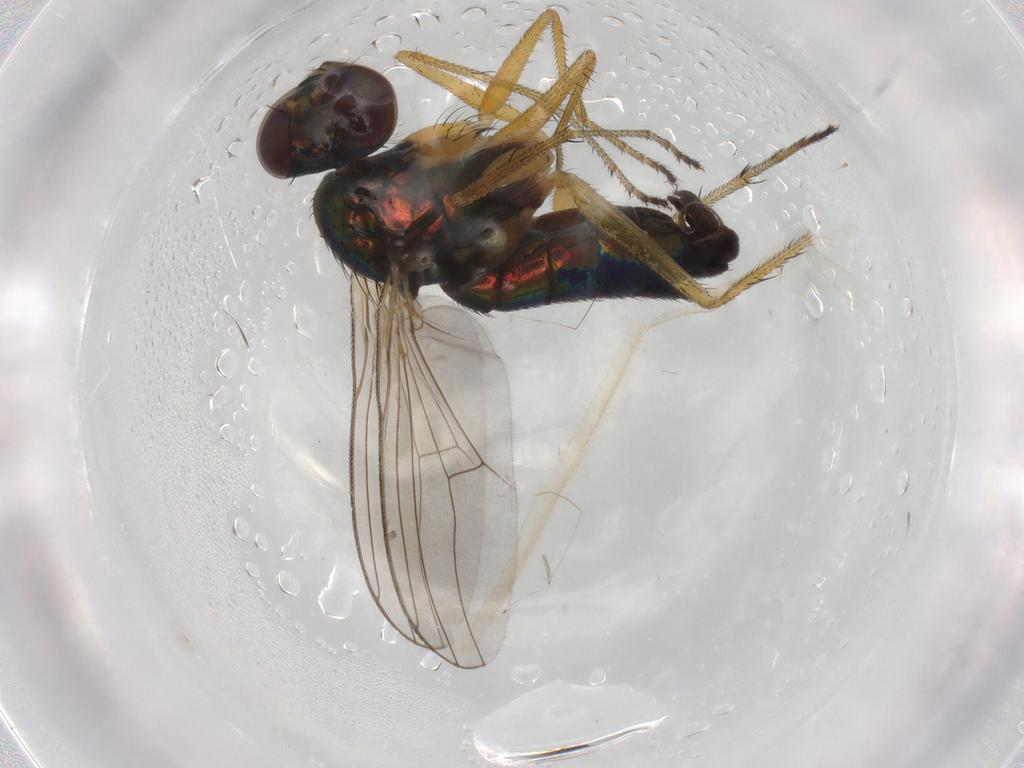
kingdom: Animalia
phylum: Arthropoda
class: Insecta
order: Diptera
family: Dolichopodidae
